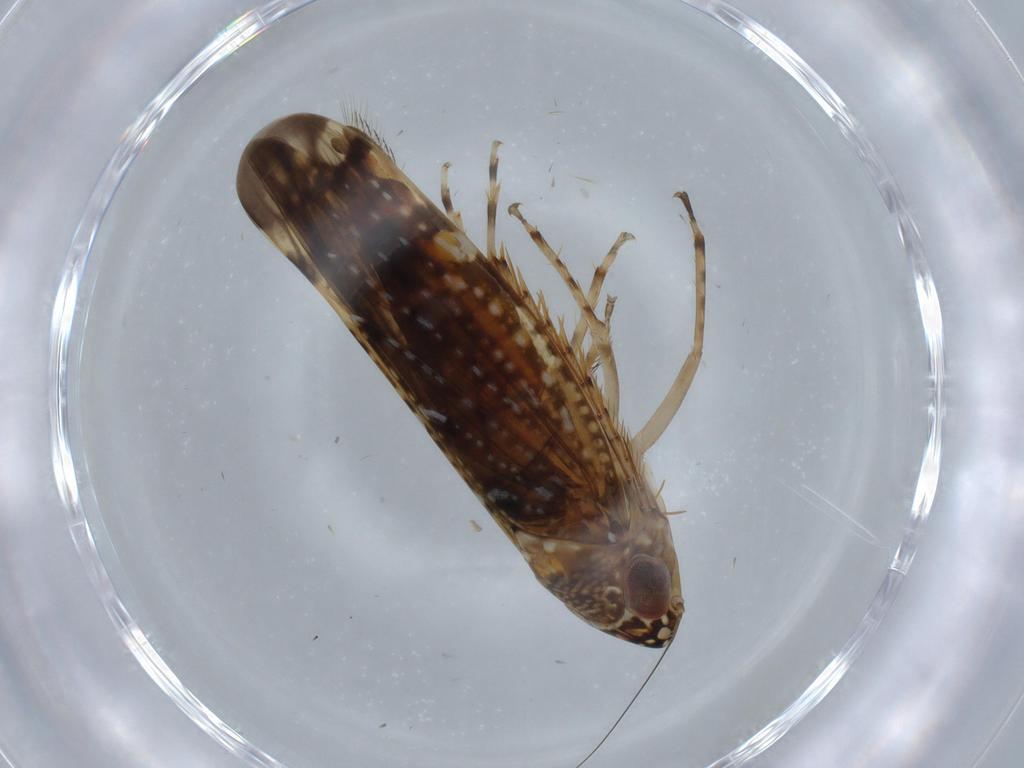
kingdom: Animalia
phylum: Arthropoda
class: Insecta
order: Hemiptera
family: Cicadellidae
